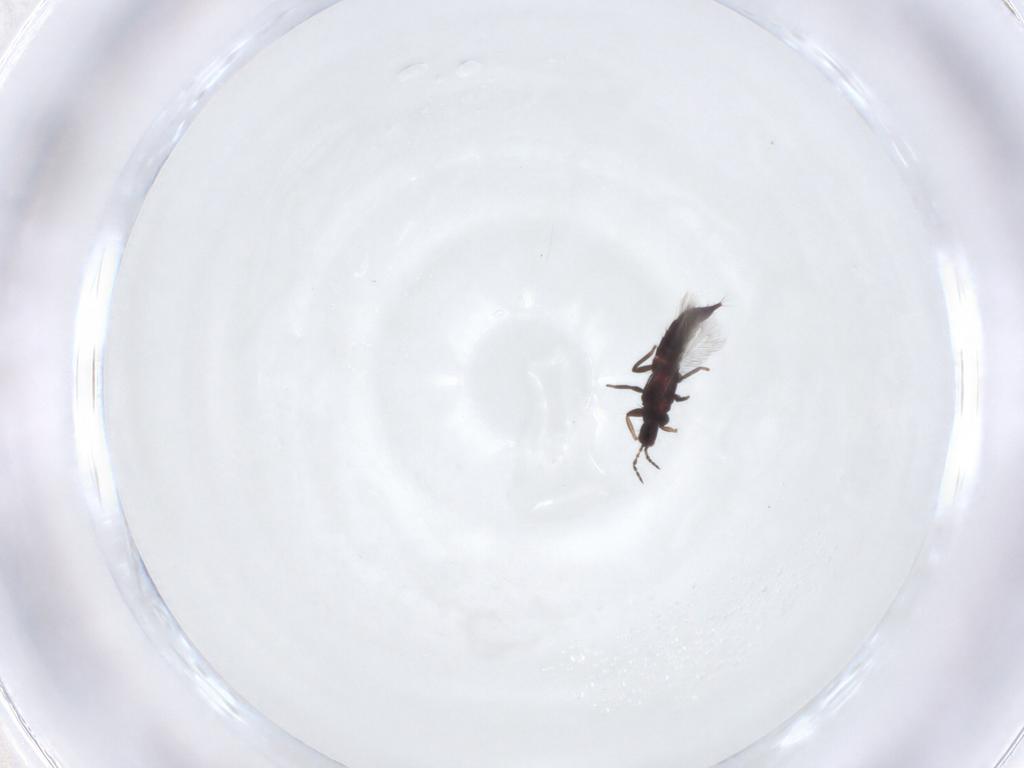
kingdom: Animalia
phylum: Arthropoda
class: Insecta
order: Thysanoptera
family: Phlaeothripidae
